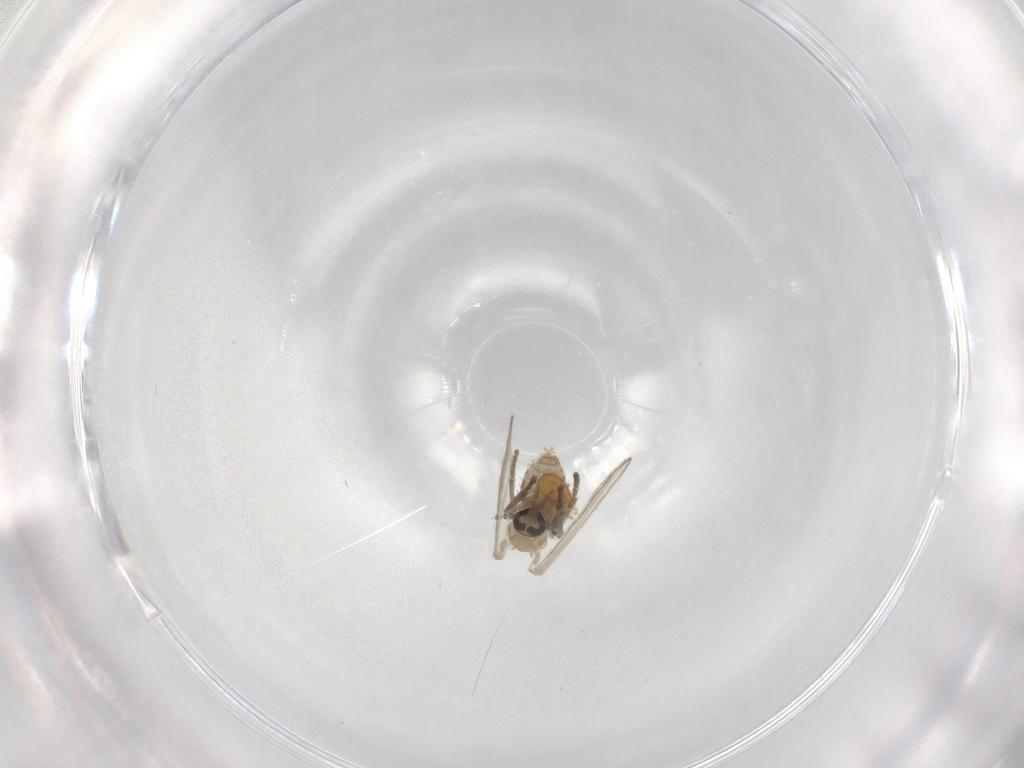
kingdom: Animalia
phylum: Arthropoda
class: Insecta
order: Diptera
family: Psychodidae
